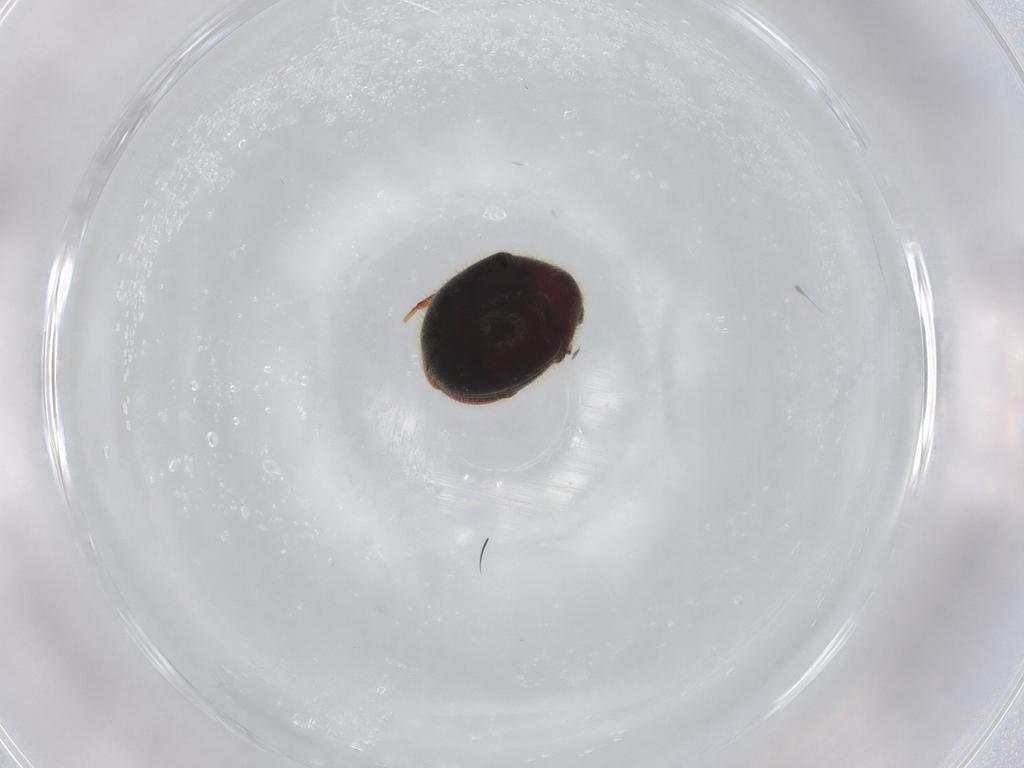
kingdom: Animalia
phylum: Arthropoda
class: Insecta
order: Coleoptera
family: Ptinidae
